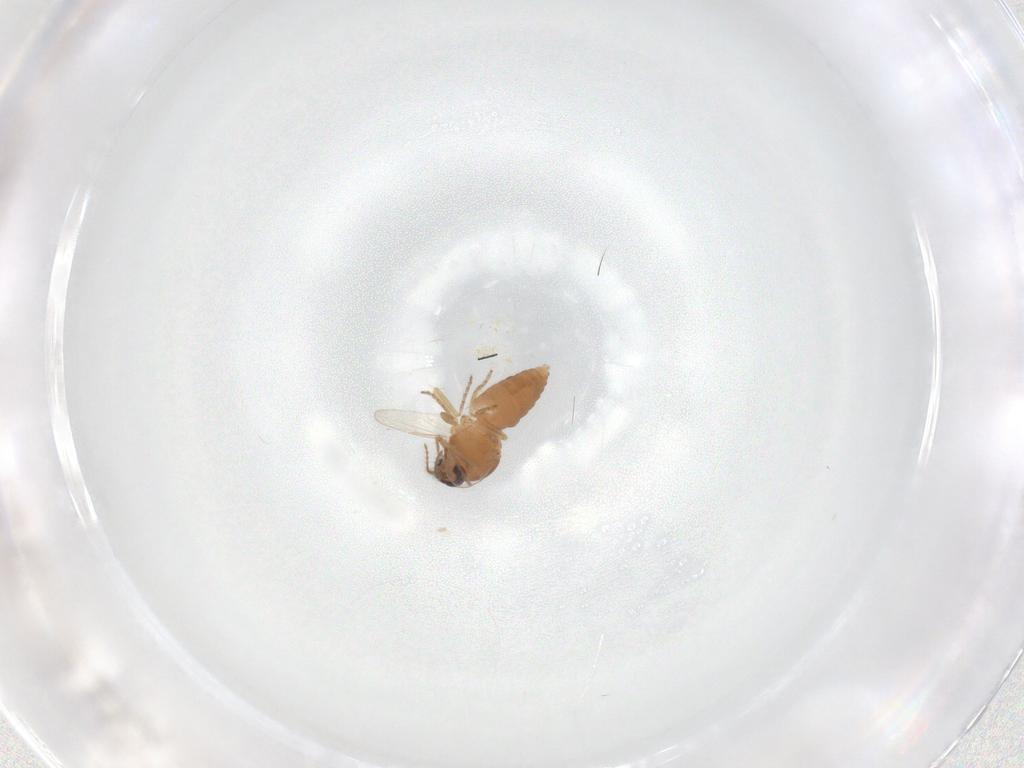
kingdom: Animalia
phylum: Arthropoda
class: Insecta
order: Diptera
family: Ceratopogonidae
